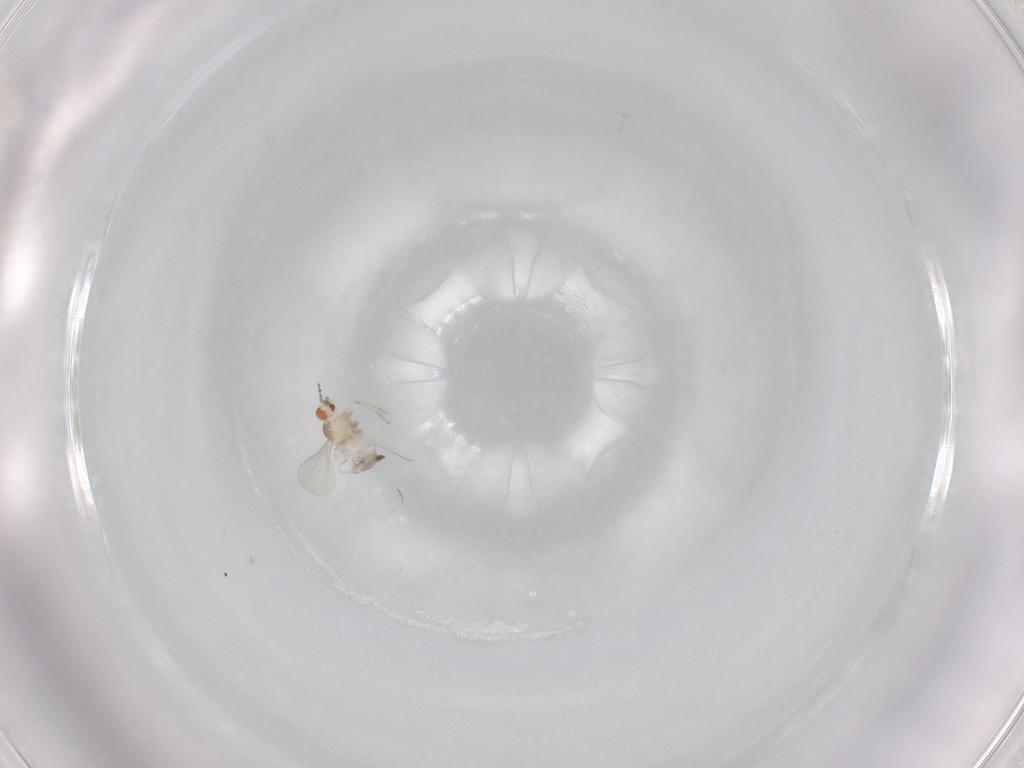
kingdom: Animalia
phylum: Arthropoda
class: Insecta
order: Diptera
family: Cecidomyiidae
